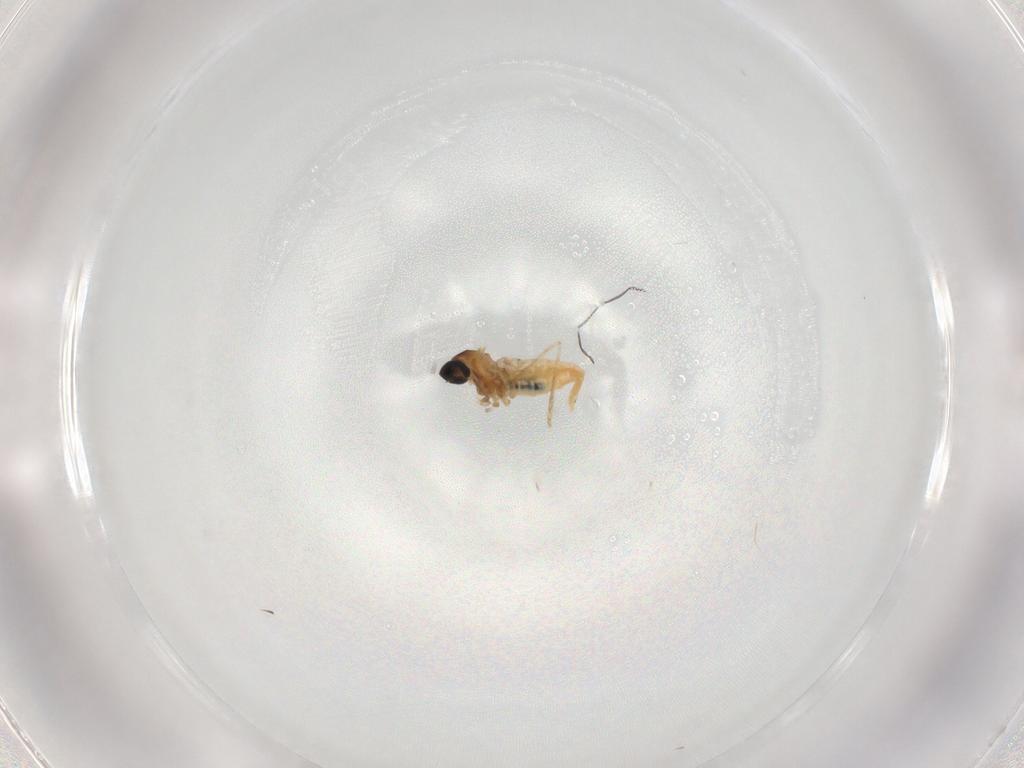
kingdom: Animalia
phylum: Arthropoda
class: Insecta
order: Diptera
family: Cecidomyiidae
